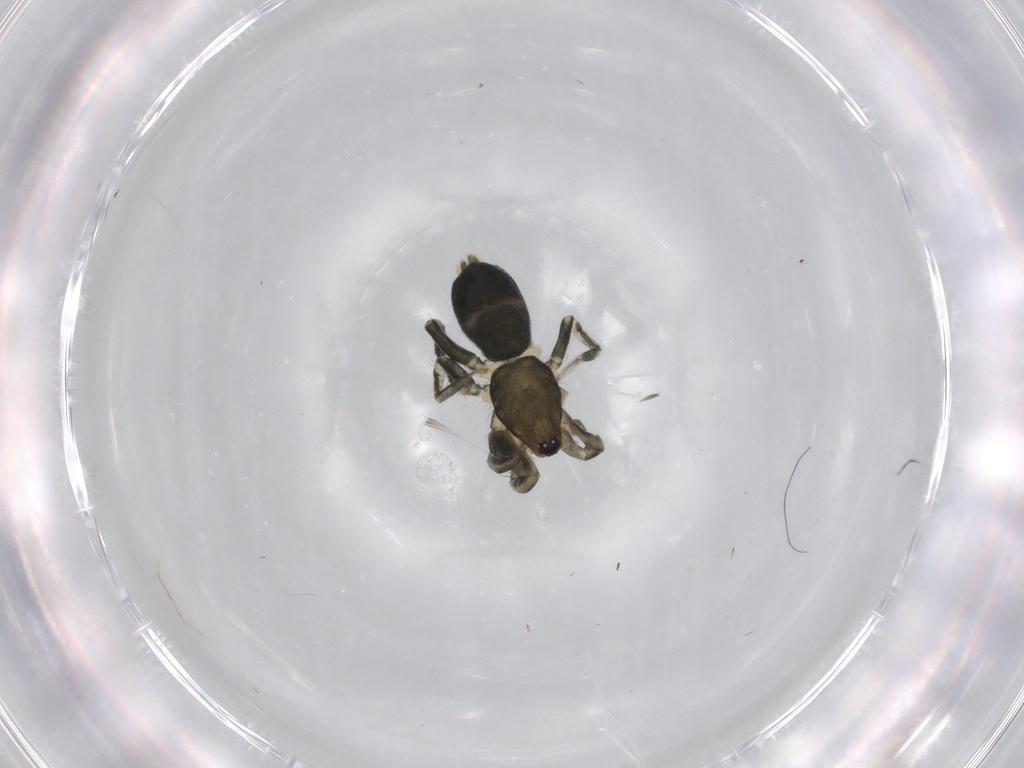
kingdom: Animalia
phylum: Arthropoda
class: Arachnida
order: Araneae
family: Gnaphosidae
